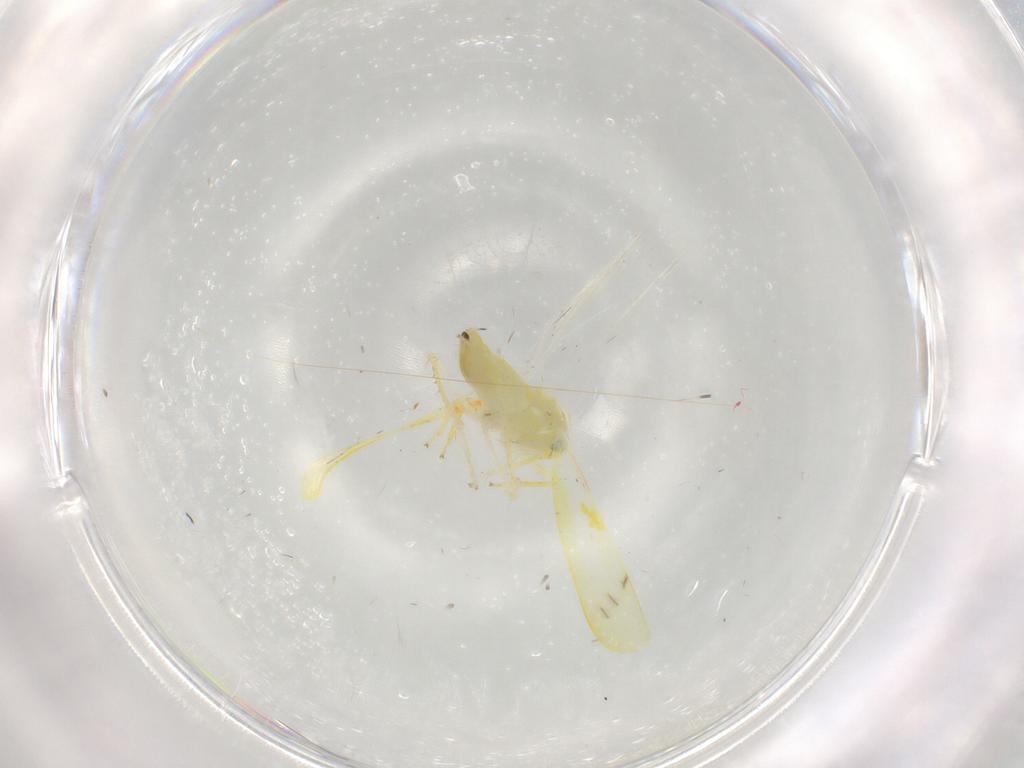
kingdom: Animalia
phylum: Arthropoda
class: Insecta
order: Hemiptera
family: Cicadellidae
